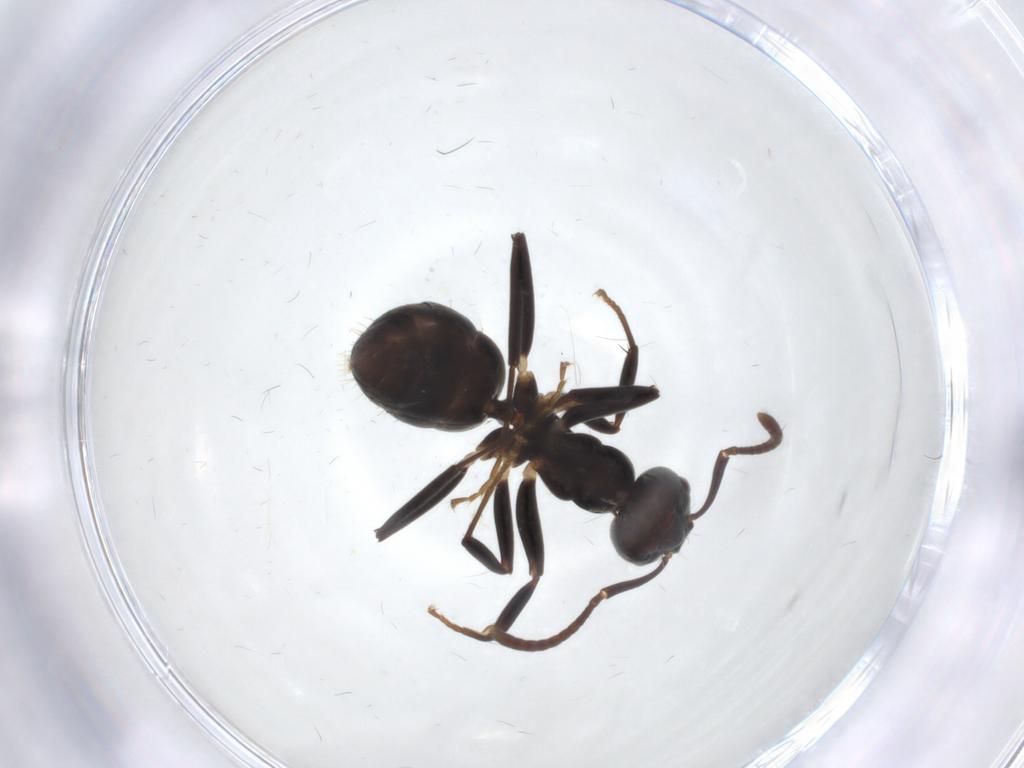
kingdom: Animalia
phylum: Arthropoda
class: Insecta
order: Hymenoptera
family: Formicidae
